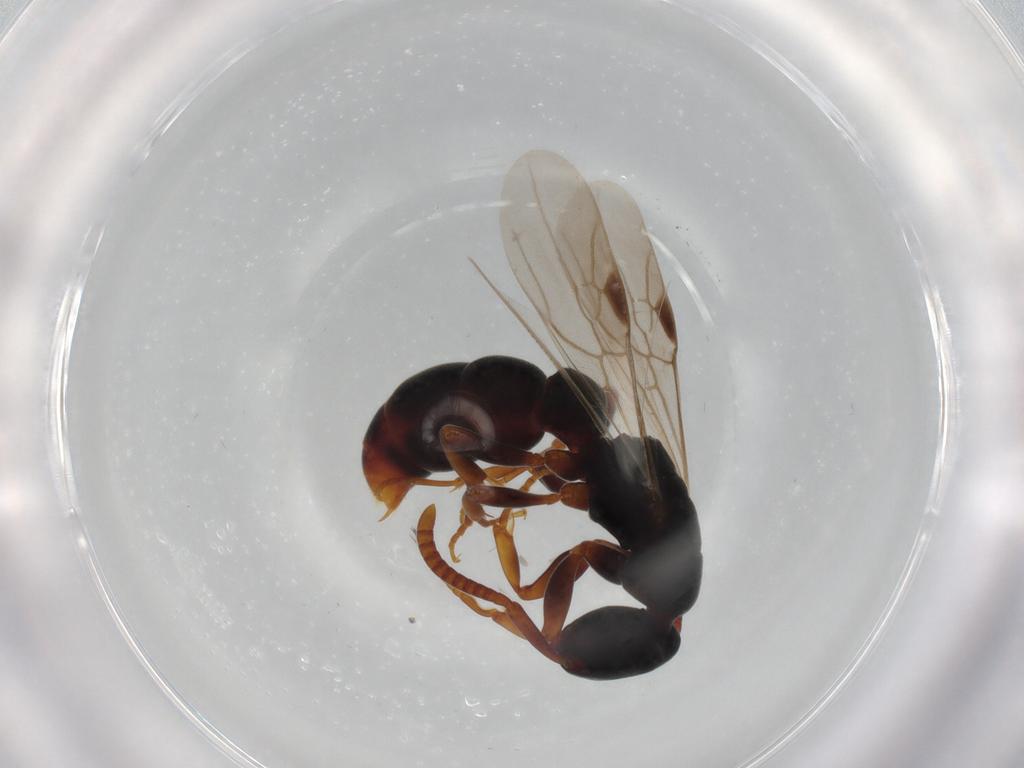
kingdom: Animalia
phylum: Arthropoda
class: Insecta
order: Hymenoptera
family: Formicidae
